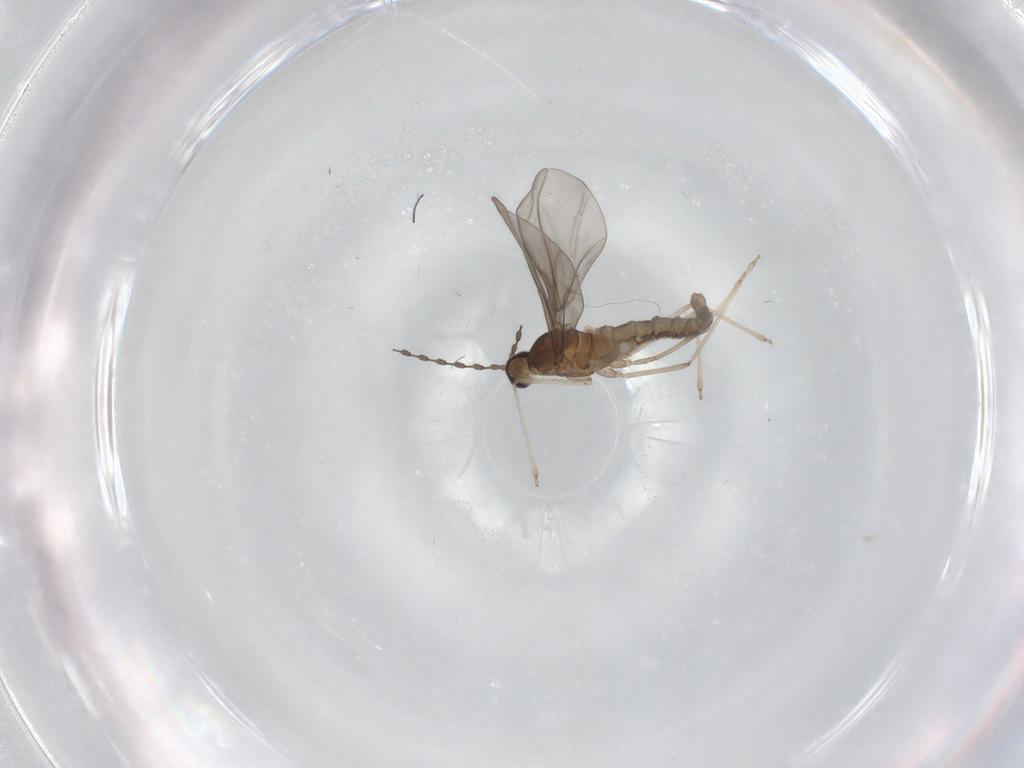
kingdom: Animalia
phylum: Arthropoda
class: Insecta
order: Diptera
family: Cecidomyiidae
